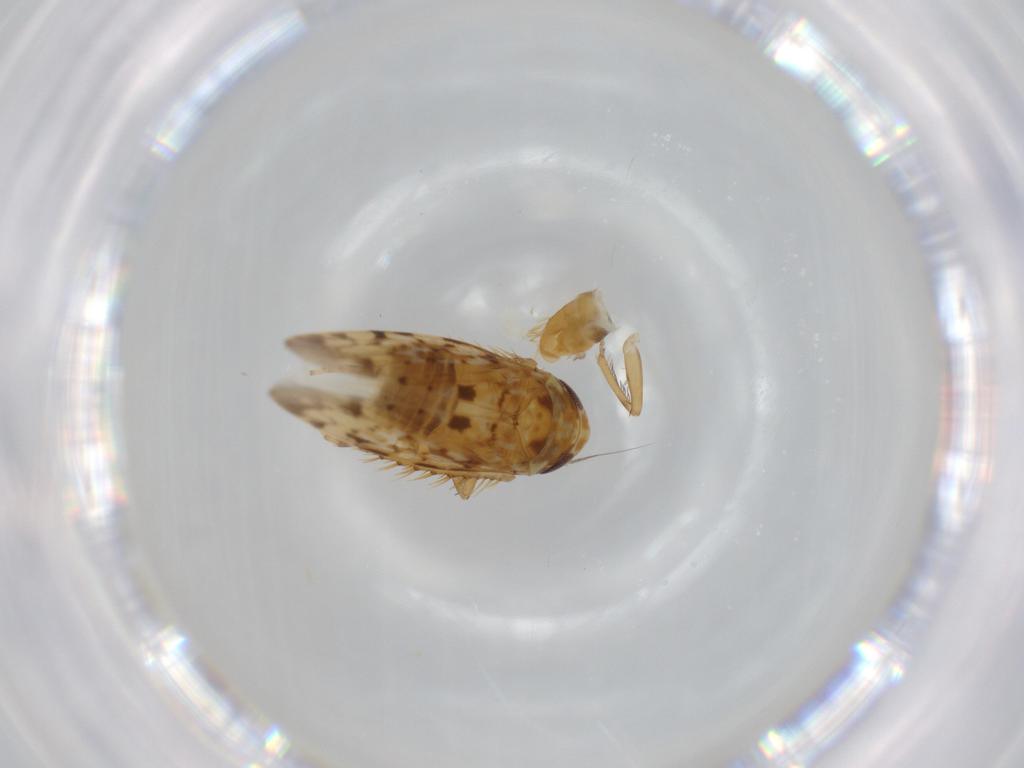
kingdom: Animalia
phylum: Arthropoda
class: Insecta
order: Hemiptera
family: Cicadellidae
